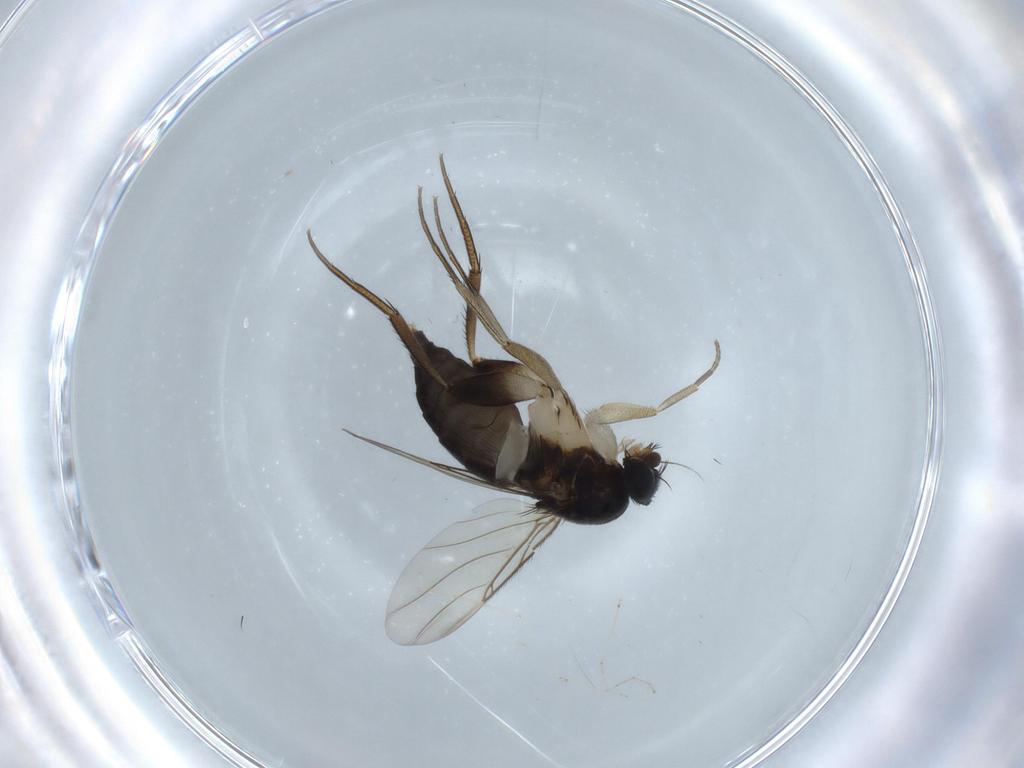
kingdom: Animalia
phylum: Arthropoda
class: Insecta
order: Diptera
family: Phoridae
